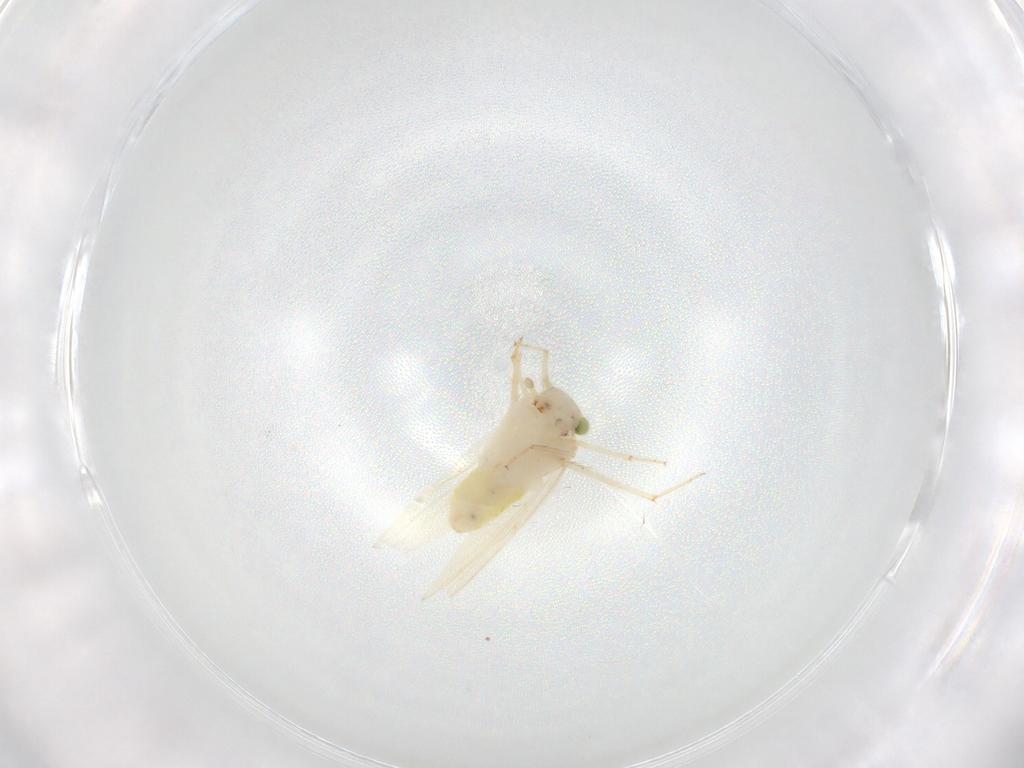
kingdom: Animalia
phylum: Arthropoda
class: Insecta
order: Psocodea
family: Lepidopsocidae
